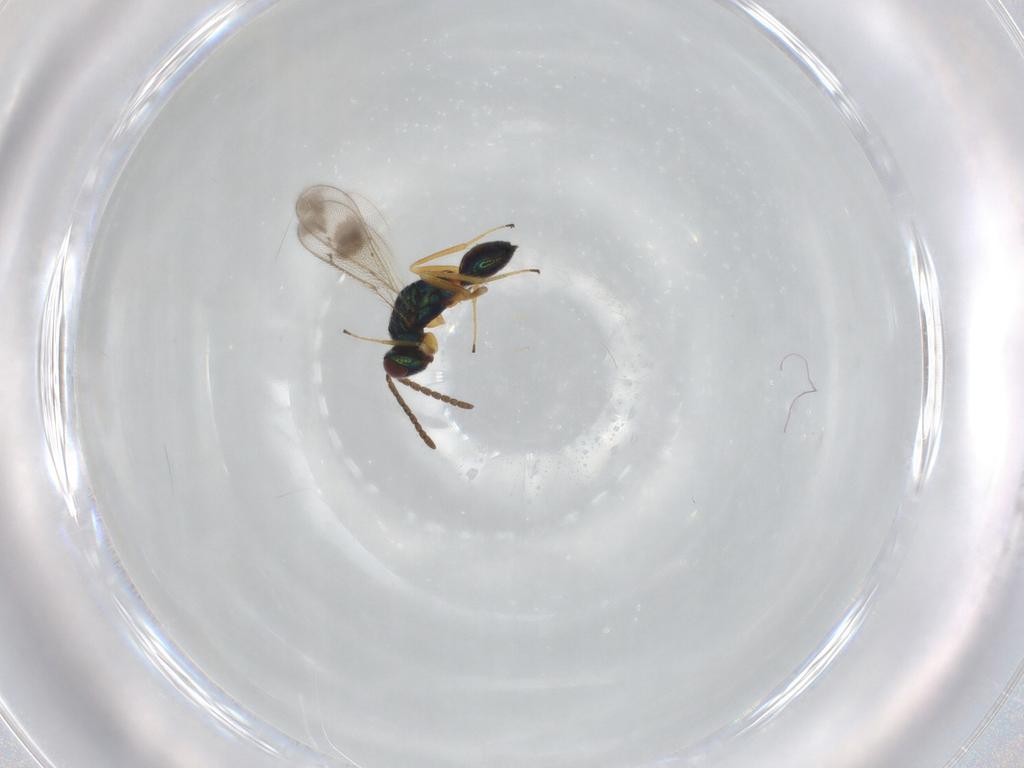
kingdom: Animalia
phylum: Arthropoda
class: Insecta
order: Hymenoptera
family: Tetracampidae
